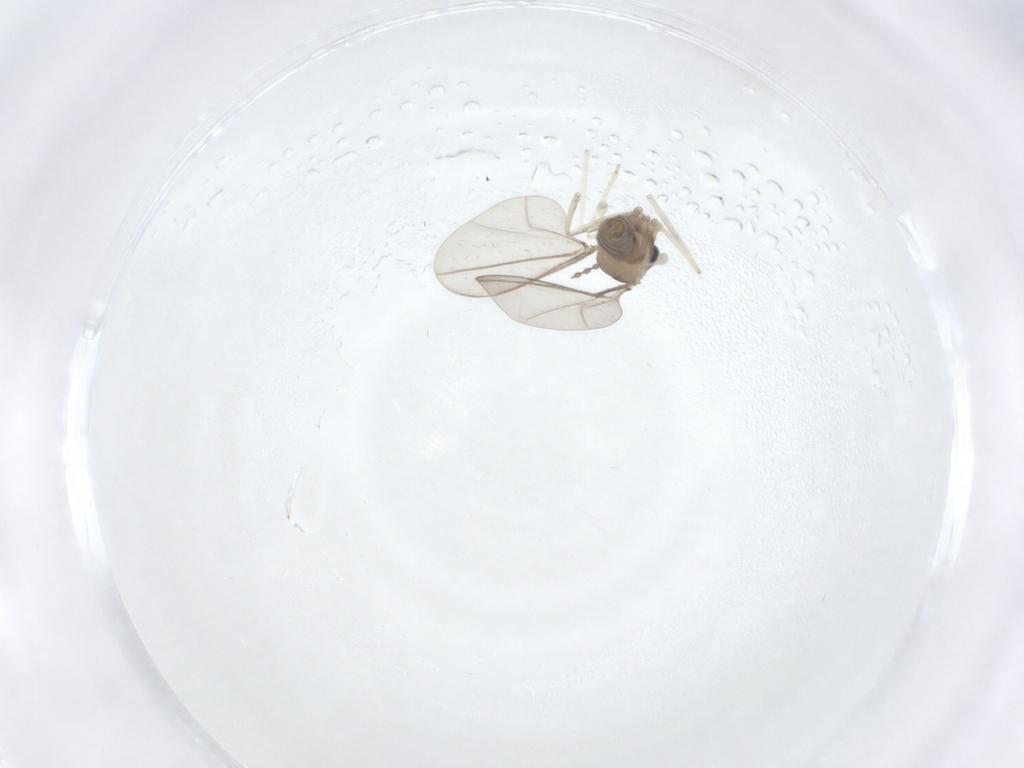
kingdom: Animalia
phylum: Arthropoda
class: Insecta
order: Diptera
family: Cecidomyiidae
